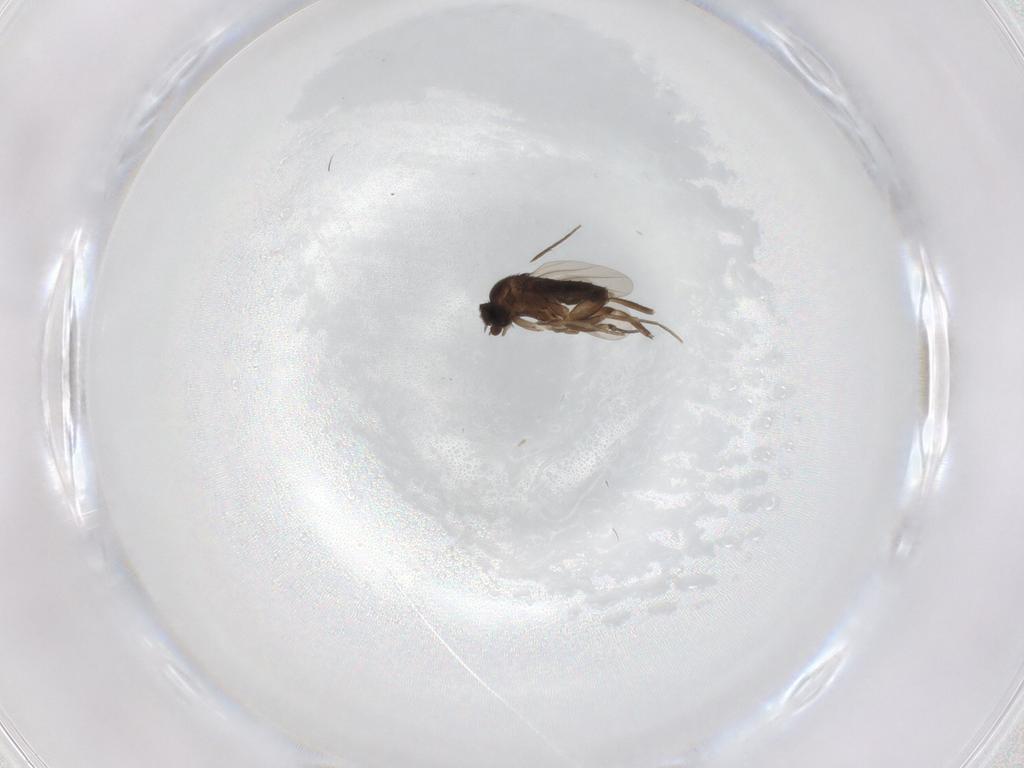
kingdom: Animalia
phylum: Arthropoda
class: Insecta
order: Diptera
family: Phoridae
